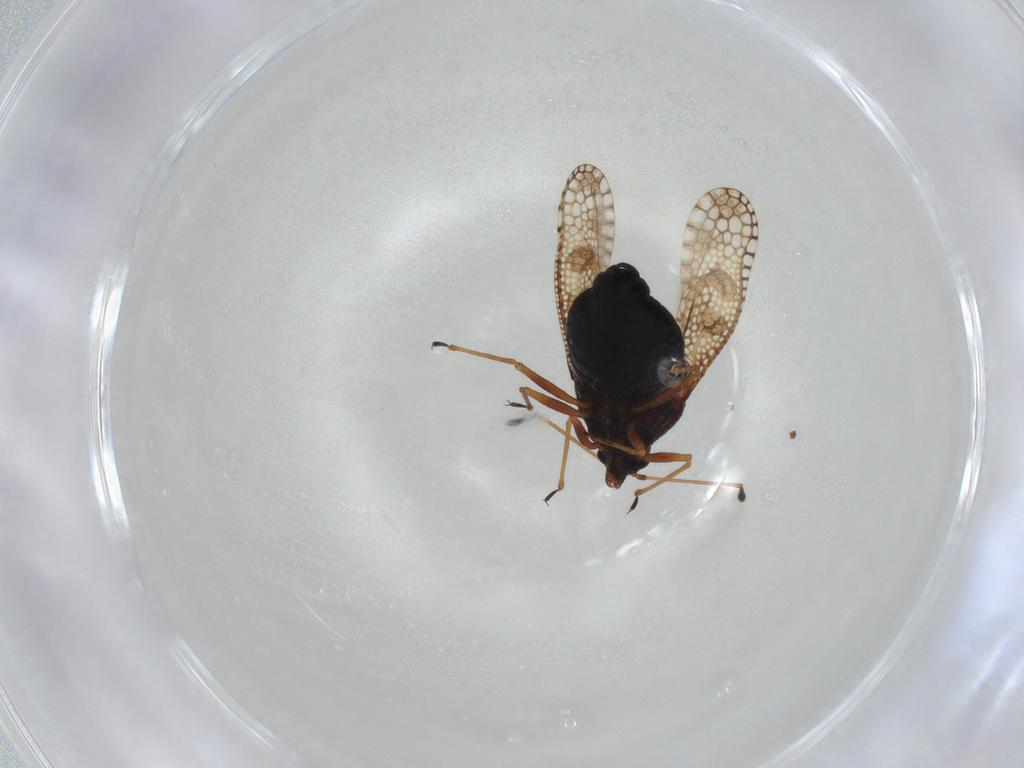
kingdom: Animalia
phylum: Arthropoda
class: Insecta
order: Hemiptera
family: Tingidae
